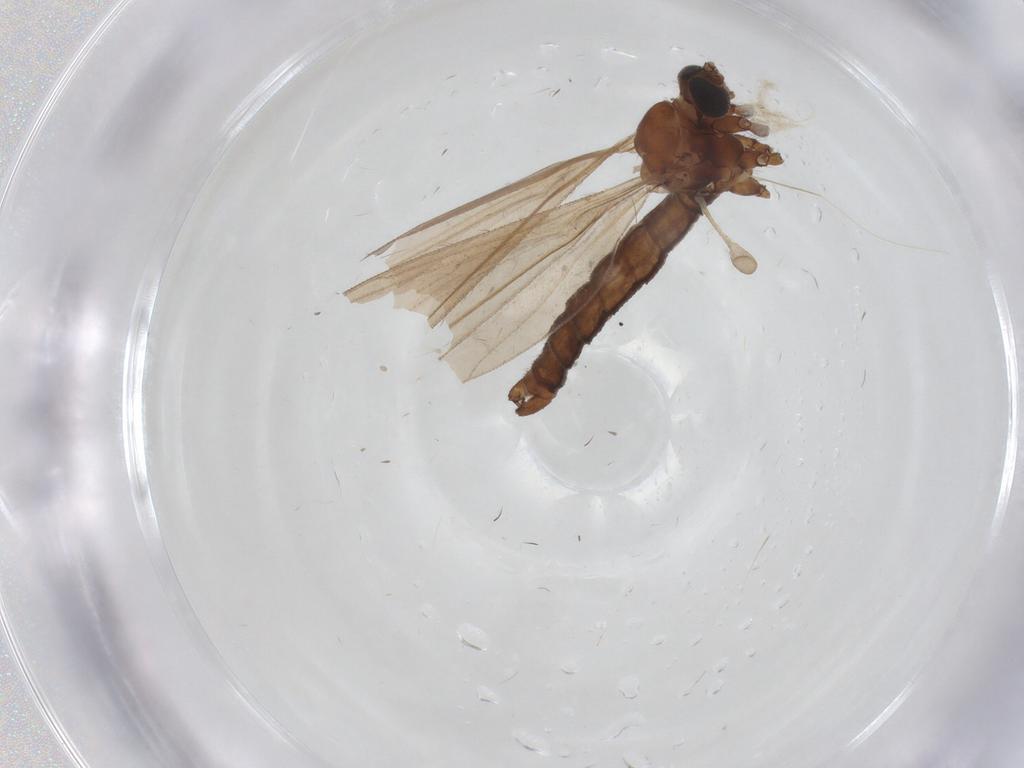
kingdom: Animalia
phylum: Arthropoda
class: Insecta
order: Diptera
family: Limoniidae
